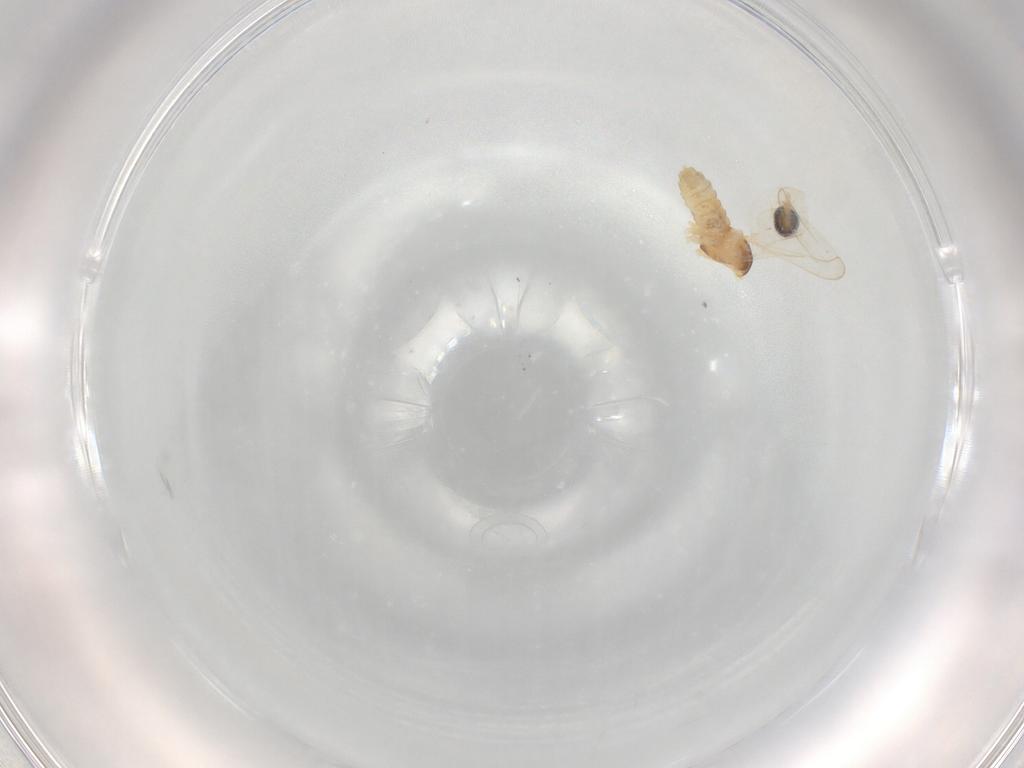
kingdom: Animalia
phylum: Arthropoda
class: Insecta
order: Diptera
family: Cecidomyiidae
